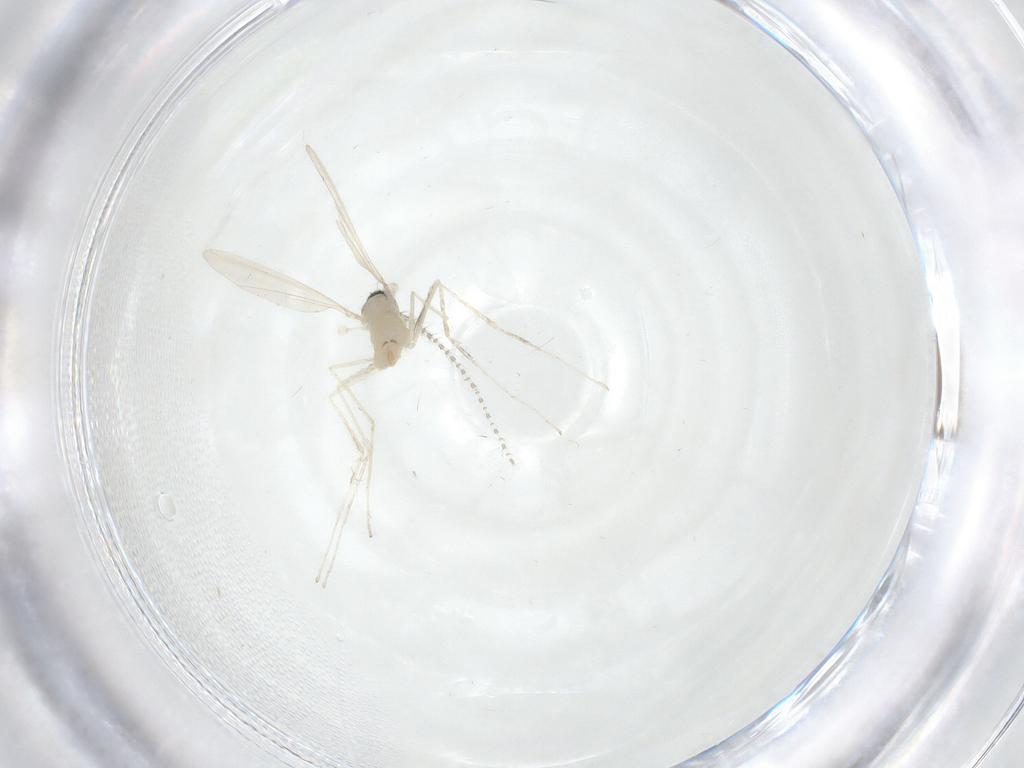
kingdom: Animalia
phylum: Arthropoda
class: Insecta
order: Diptera
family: Cecidomyiidae
